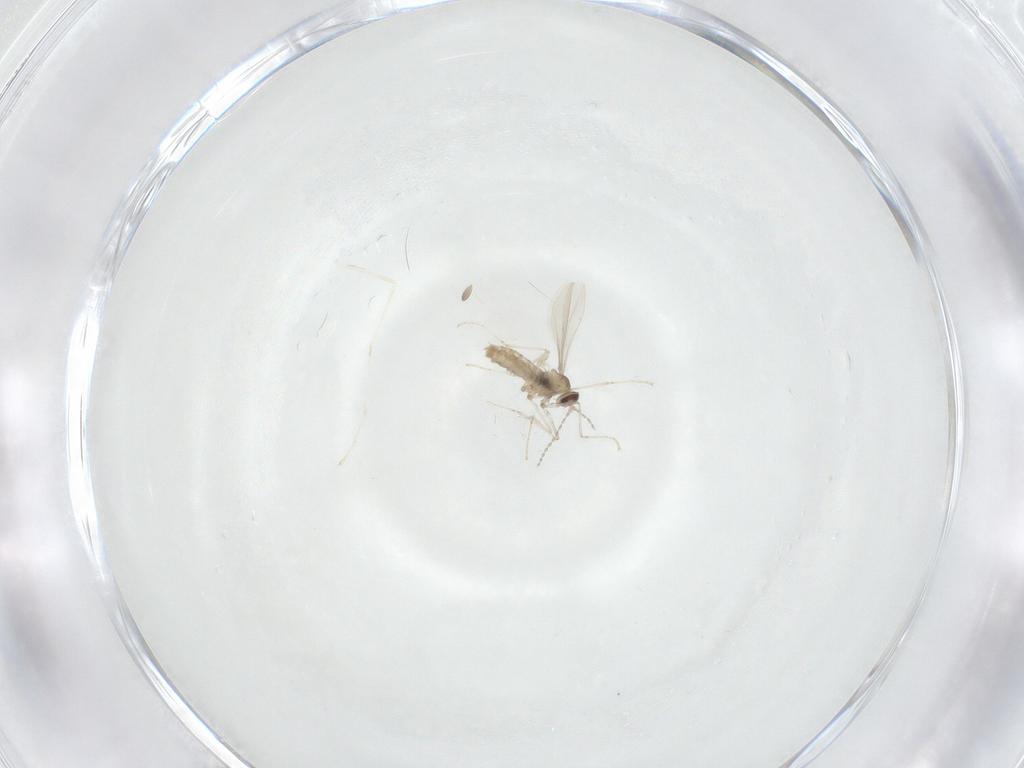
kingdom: Animalia
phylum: Arthropoda
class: Insecta
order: Diptera
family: Cecidomyiidae
